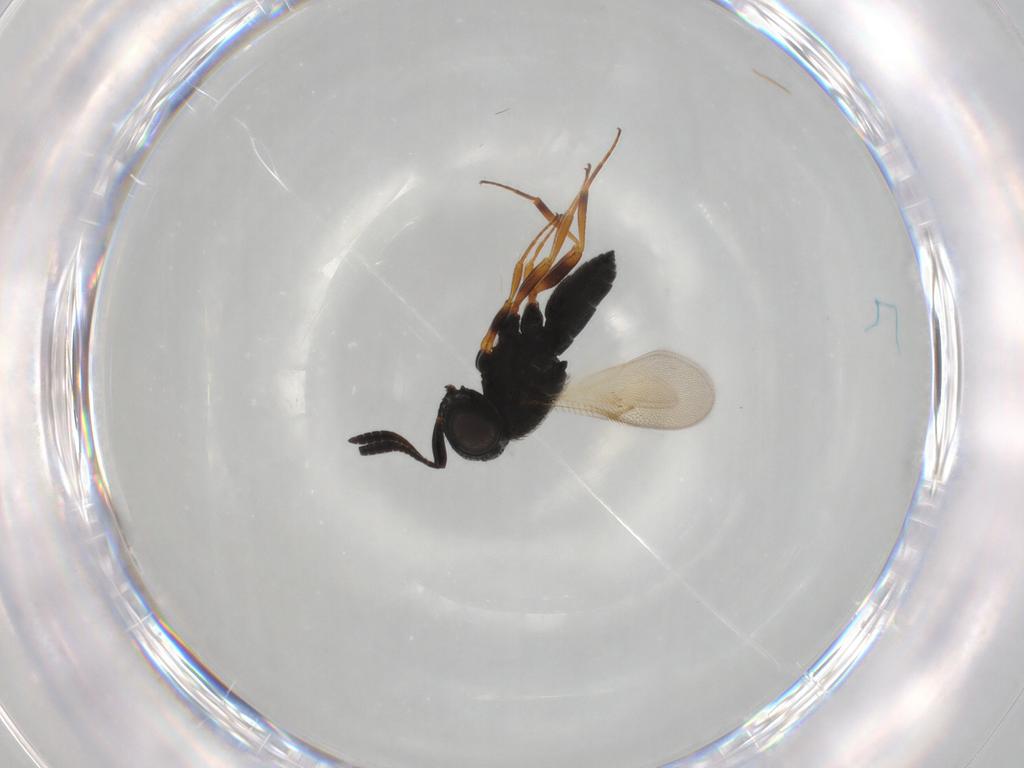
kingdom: Animalia
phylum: Arthropoda
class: Insecta
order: Hymenoptera
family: Scelionidae
